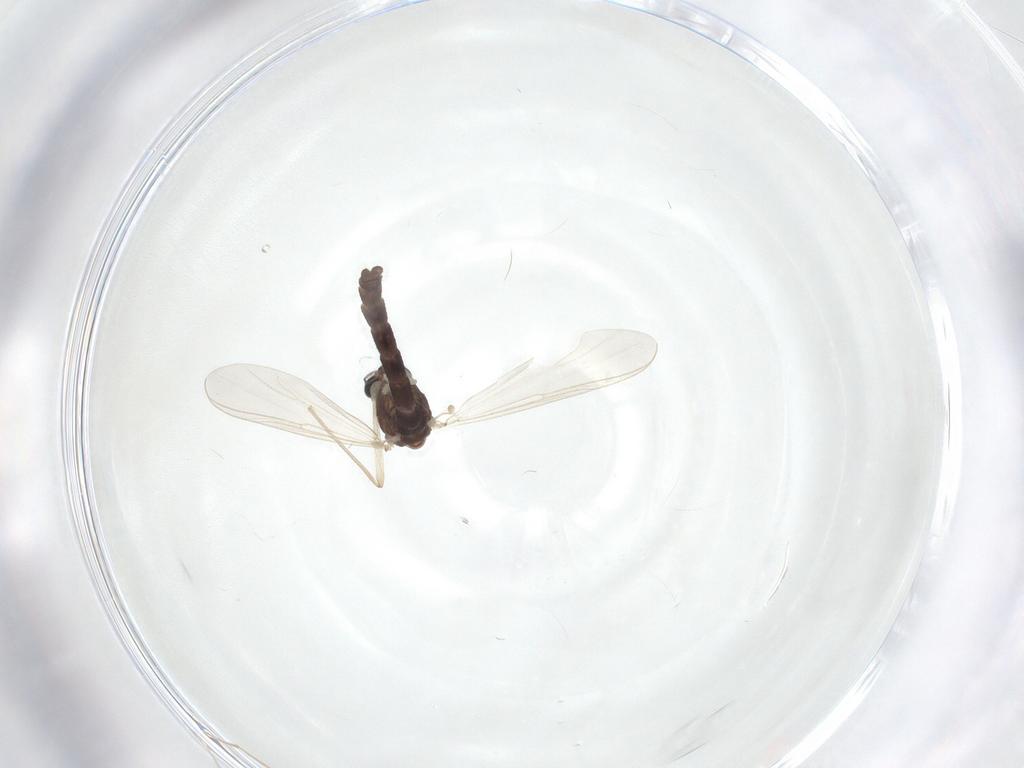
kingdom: Animalia
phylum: Arthropoda
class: Insecta
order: Diptera
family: Chironomidae
